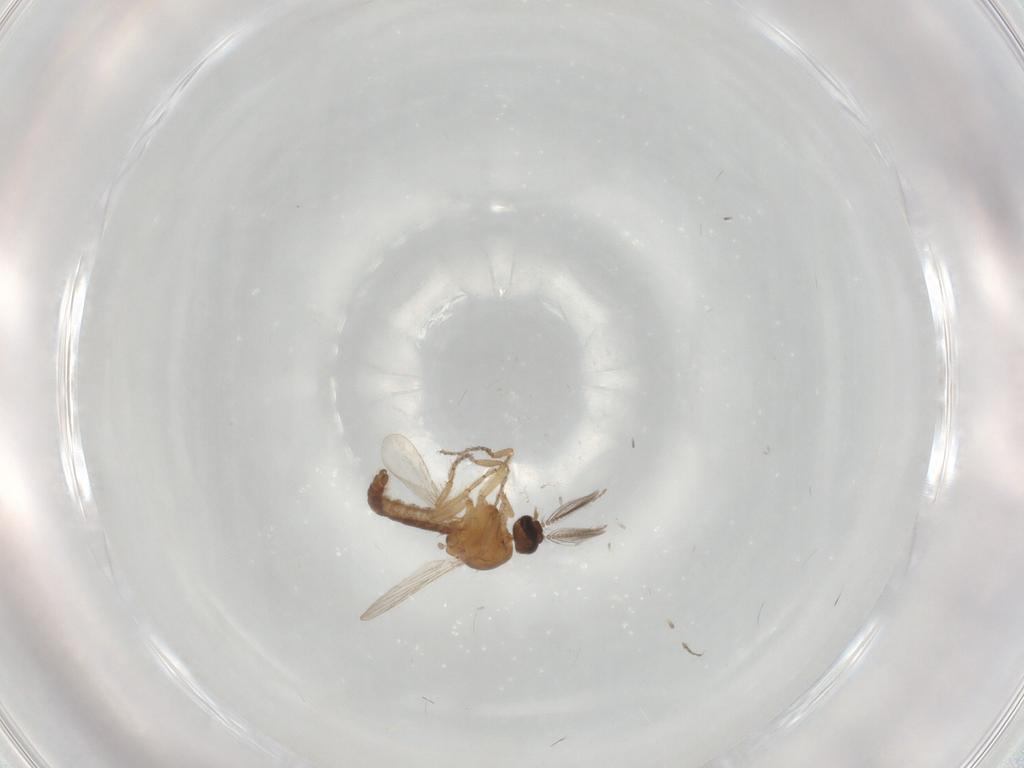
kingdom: Animalia
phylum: Arthropoda
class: Insecta
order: Diptera
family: Ceratopogonidae
